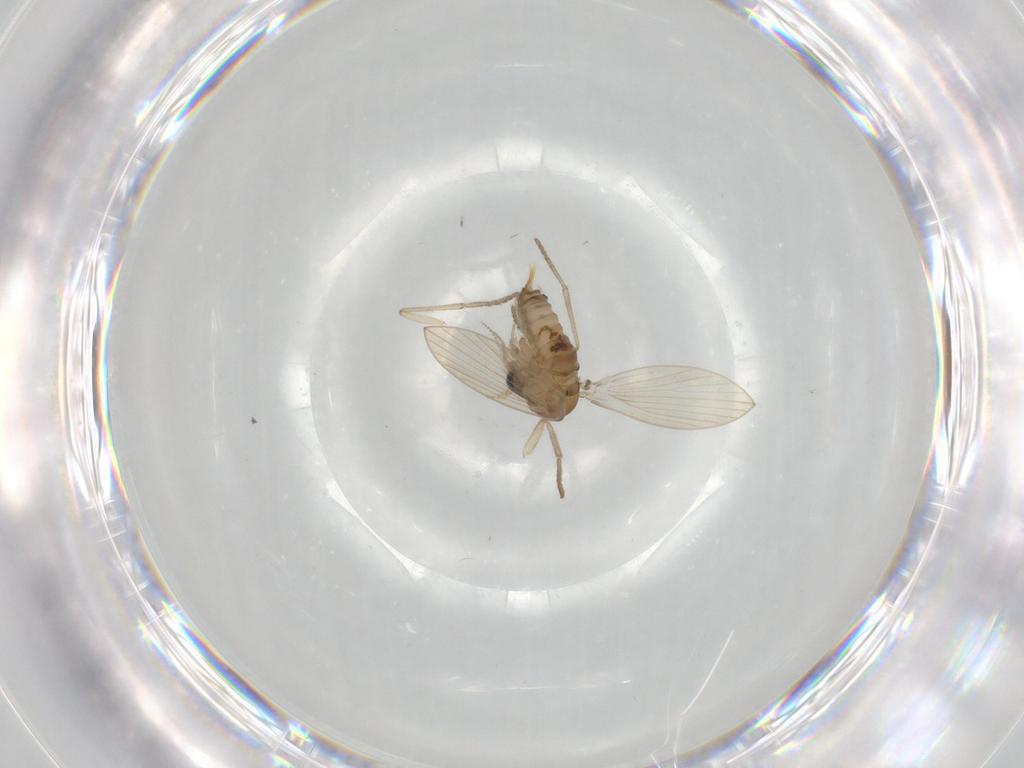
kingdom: Animalia
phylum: Arthropoda
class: Insecta
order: Diptera
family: Psychodidae
